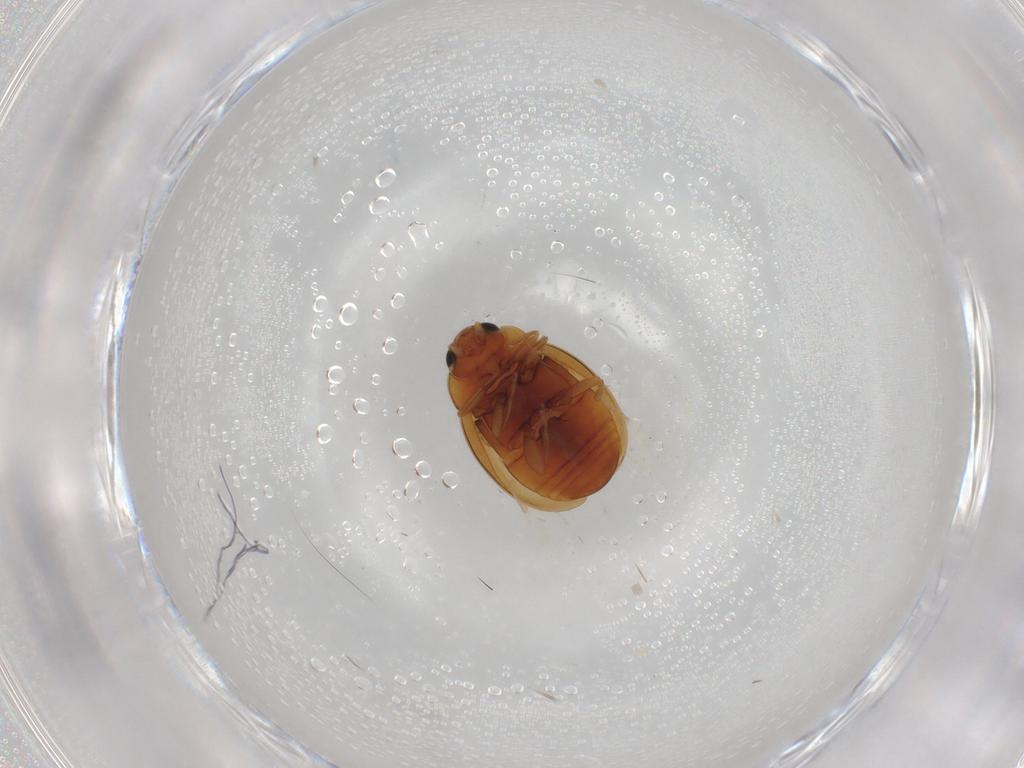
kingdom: Animalia
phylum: Arthropoda
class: Insecta
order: Coleoptera
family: Coccinellidae
